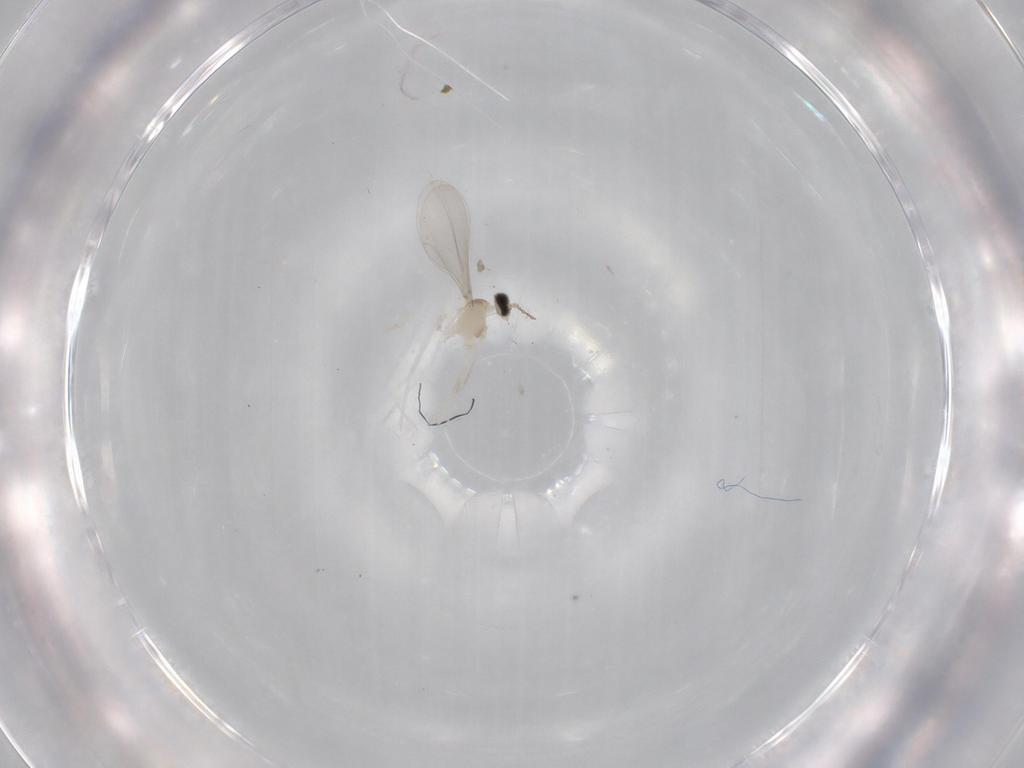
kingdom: Animalia
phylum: Arthropoda
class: Insecta
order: Diptera
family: Cecidomyiidae
